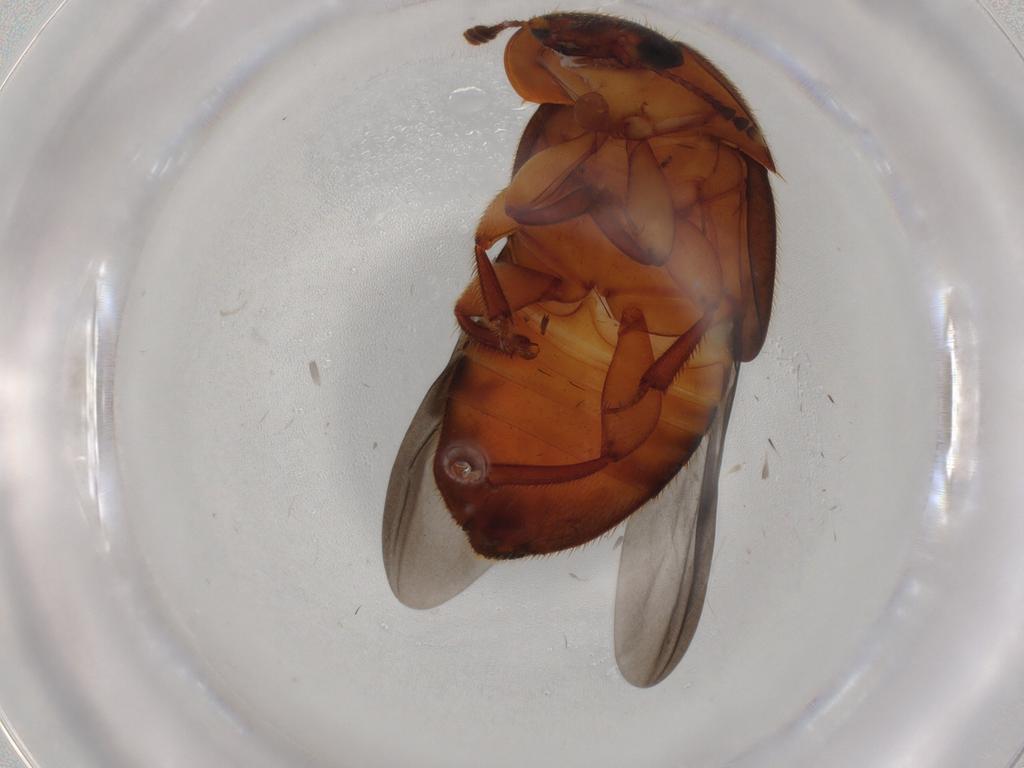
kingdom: Animalia
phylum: Arthropoda
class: Insecta
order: Coleoptera
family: Nitidulidae
